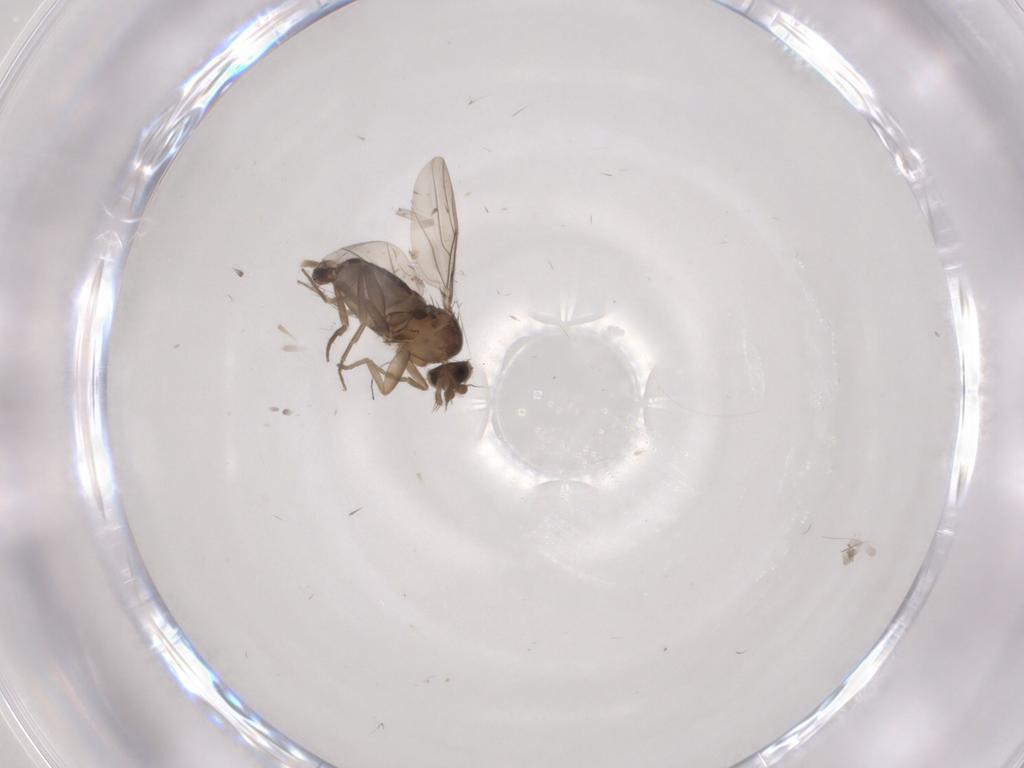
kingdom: Animalia
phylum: Arthropoda
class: Insecta
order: Diptera
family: Phoridae
